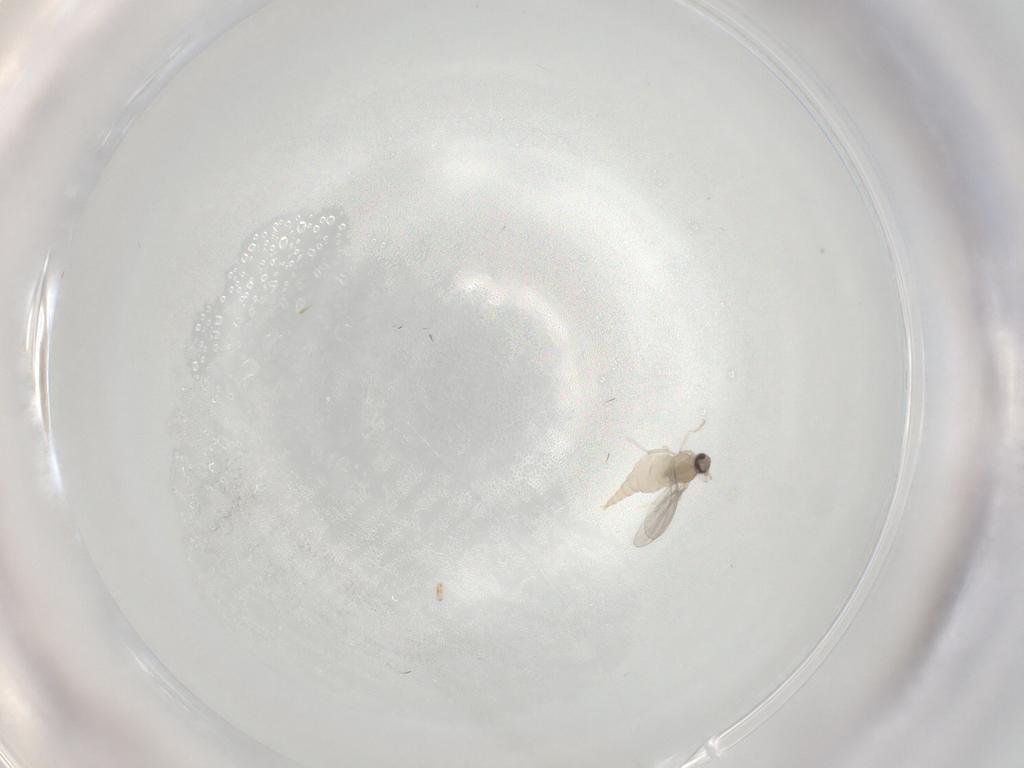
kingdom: Animalia
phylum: Arthropoda
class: Insecta
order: Diptera
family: Cecidomyiidae
